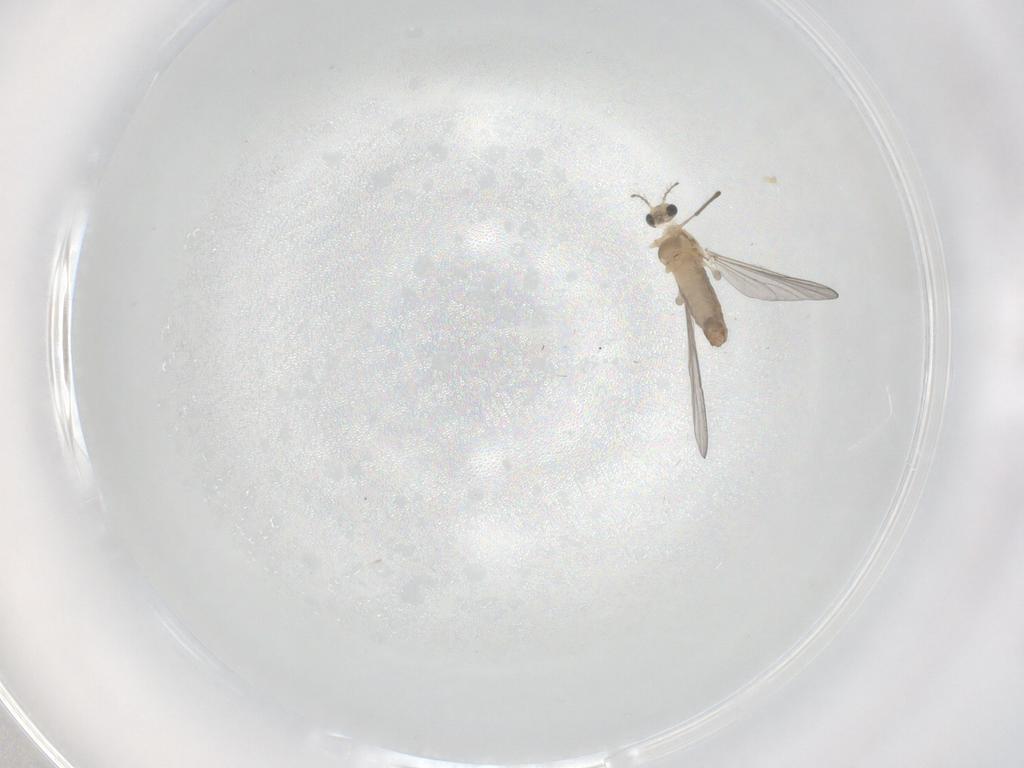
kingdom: Animalia
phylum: Arthropoda
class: Insecta
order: Diptera
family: Chironomidae
